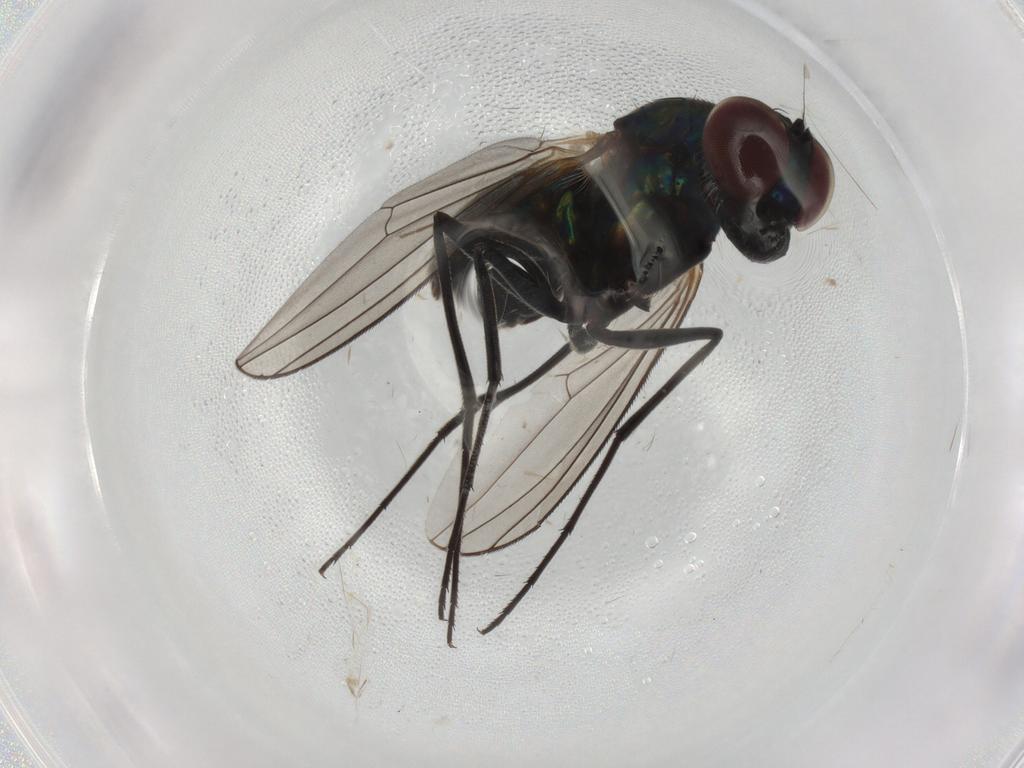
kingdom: Animalia
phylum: Arthropoda
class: Insecta
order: Diptera
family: Dolichopodidae
